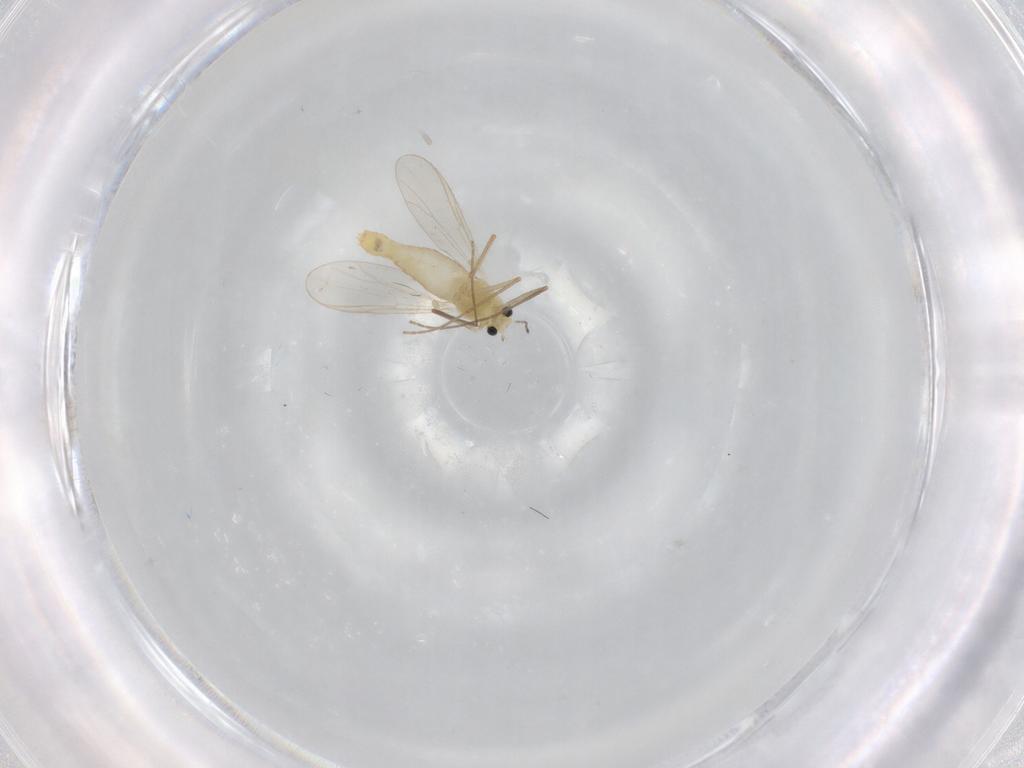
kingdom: Animalia
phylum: Arthropoda
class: Insecta
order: Diptera
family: Chironomidae
